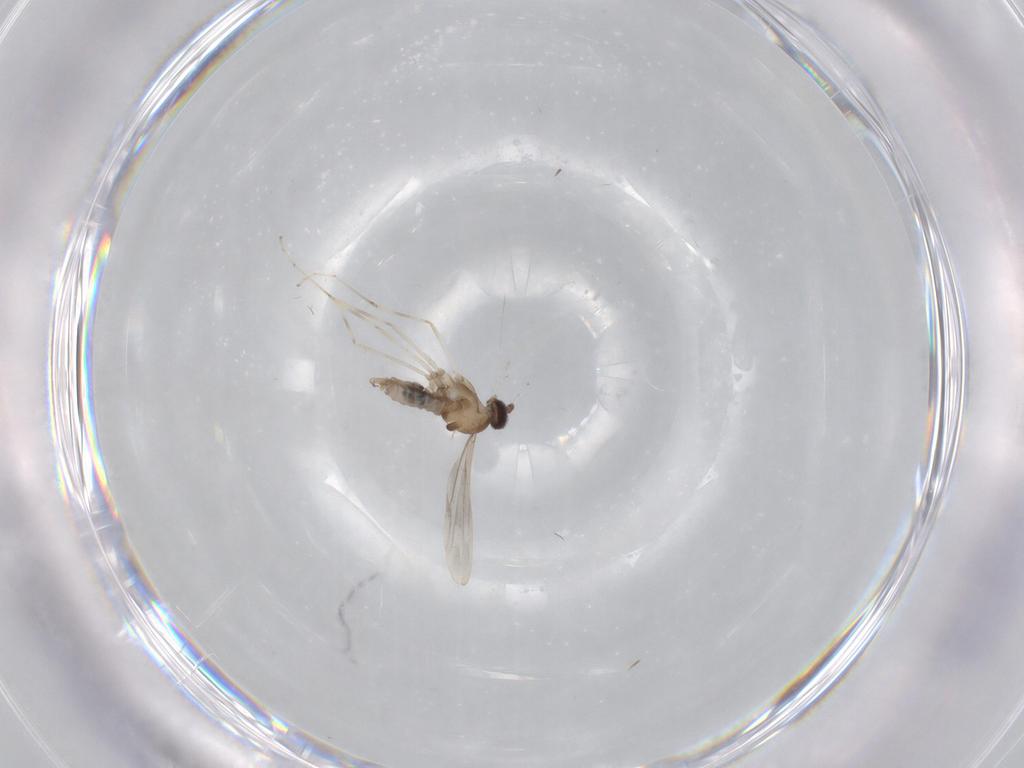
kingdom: Animalia
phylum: Arthropoda
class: Insecta
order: Diptera
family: Cecidomyiidae
